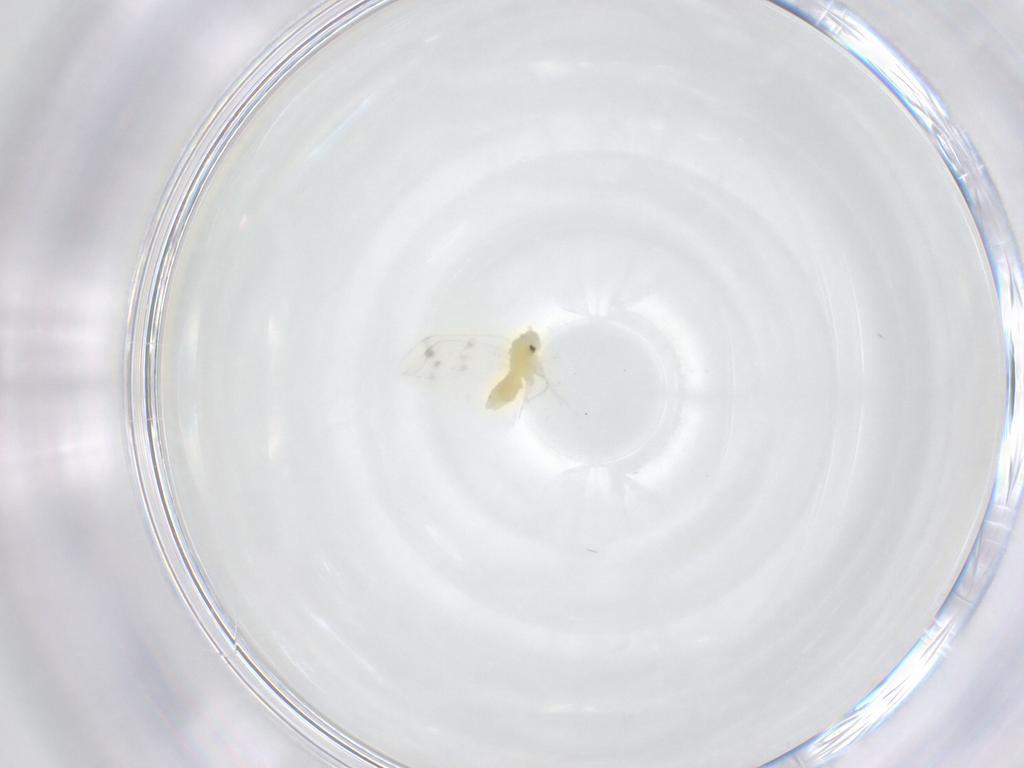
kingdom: Animalia
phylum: Arthropoda
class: Insecta
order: Hemiptera
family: Aleyrodidae
